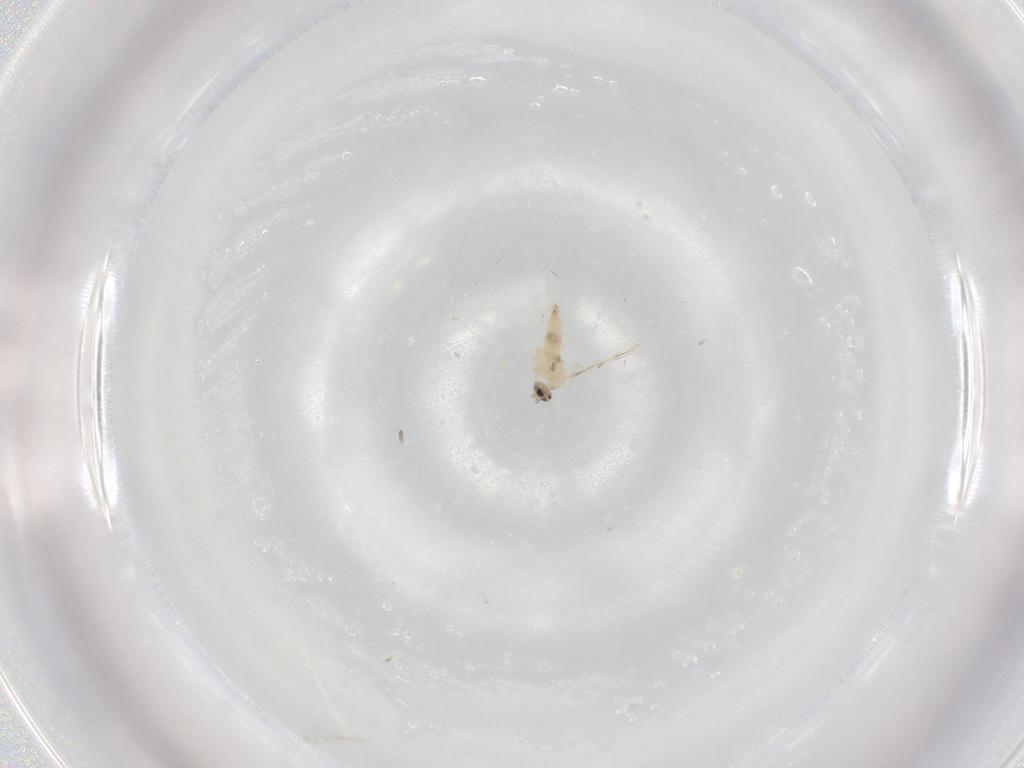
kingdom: Animalia
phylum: Arthropoda
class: Insecta
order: Diptera
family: Cecidomyiidae
